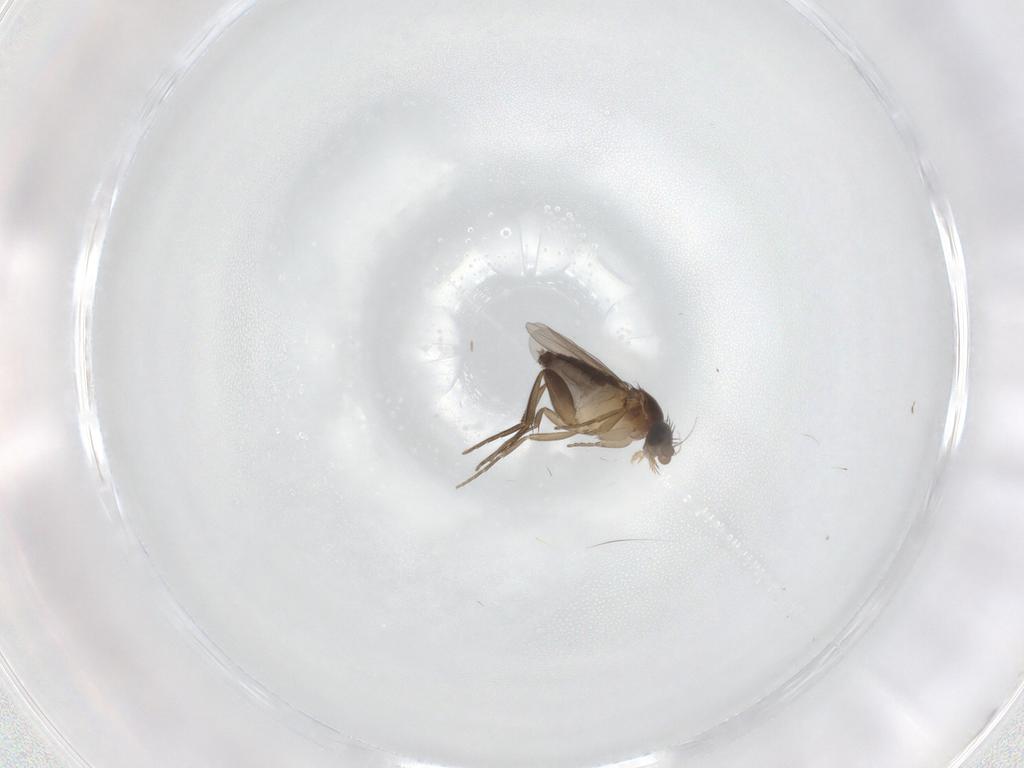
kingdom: Animalia
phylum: Arthropoda
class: Insecta
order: Diptera
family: Phoridae
